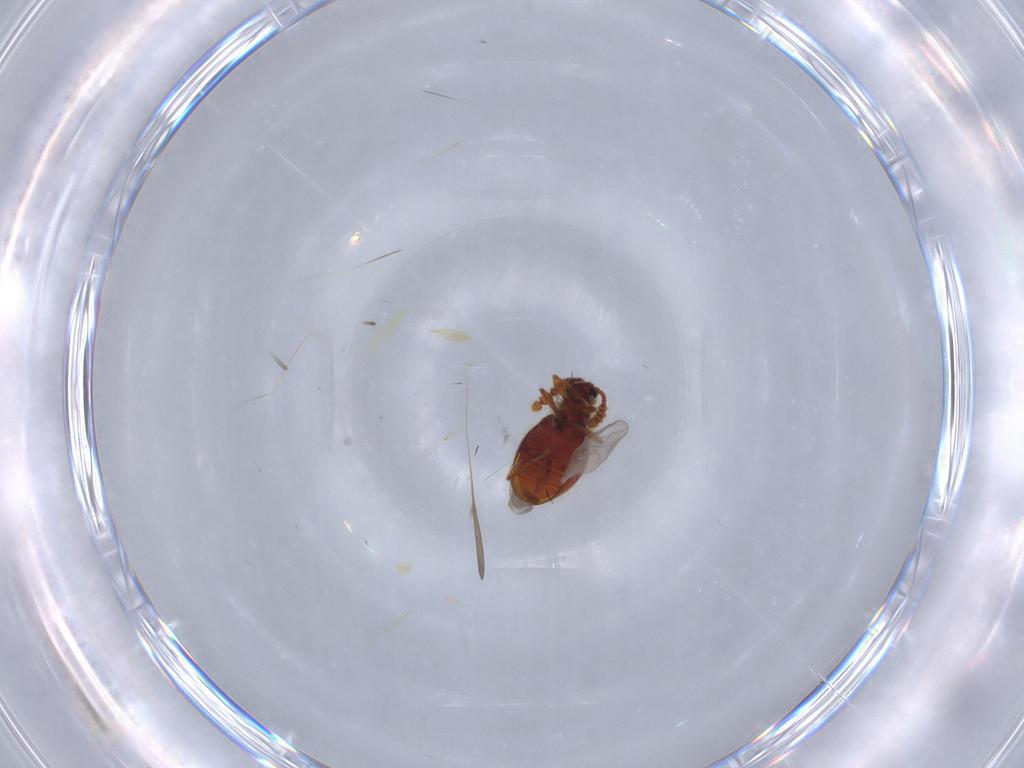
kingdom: Animalia
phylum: Arthropoda
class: Insecta
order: Coleoptera
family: Staphylinidae
